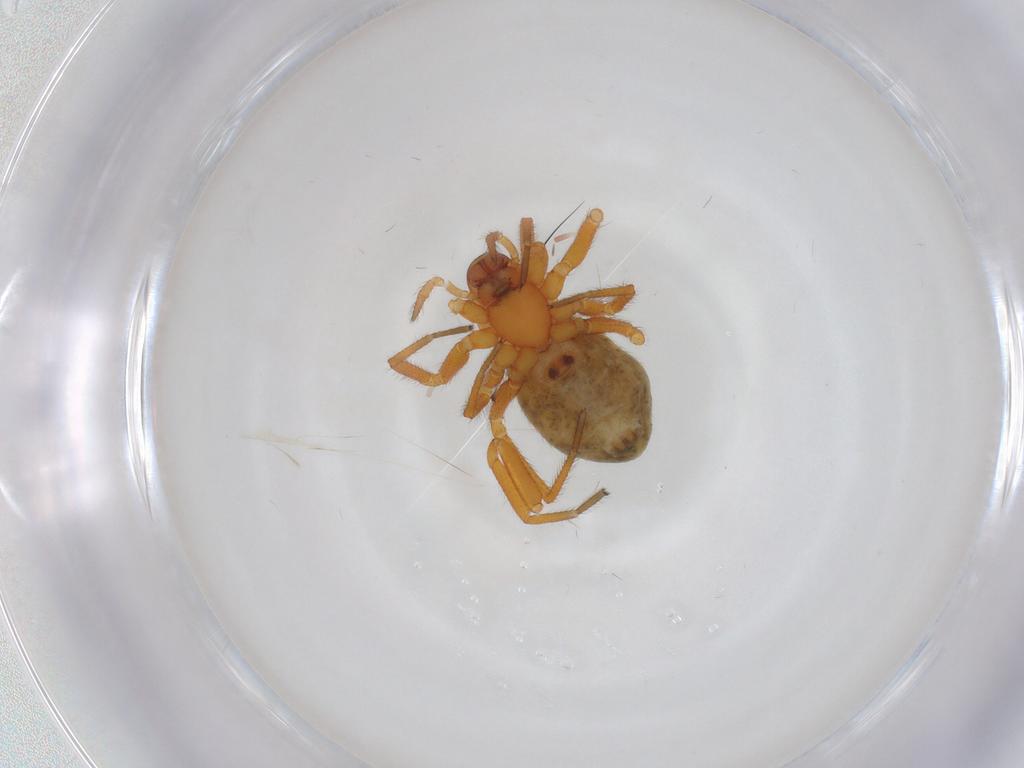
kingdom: Animalia
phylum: Arthropoda
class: Arachnida
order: Araneae
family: Linyphiidae
